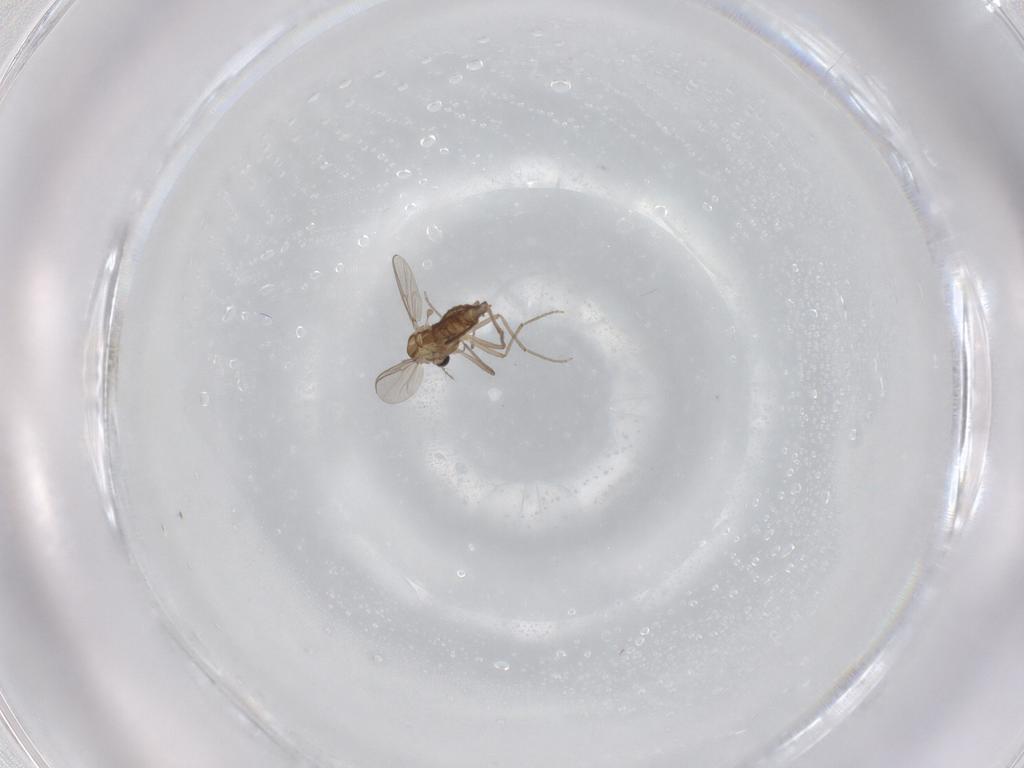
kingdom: Animalia
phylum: Arthropoda
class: Insecta
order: Diptera
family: Chironomidae
